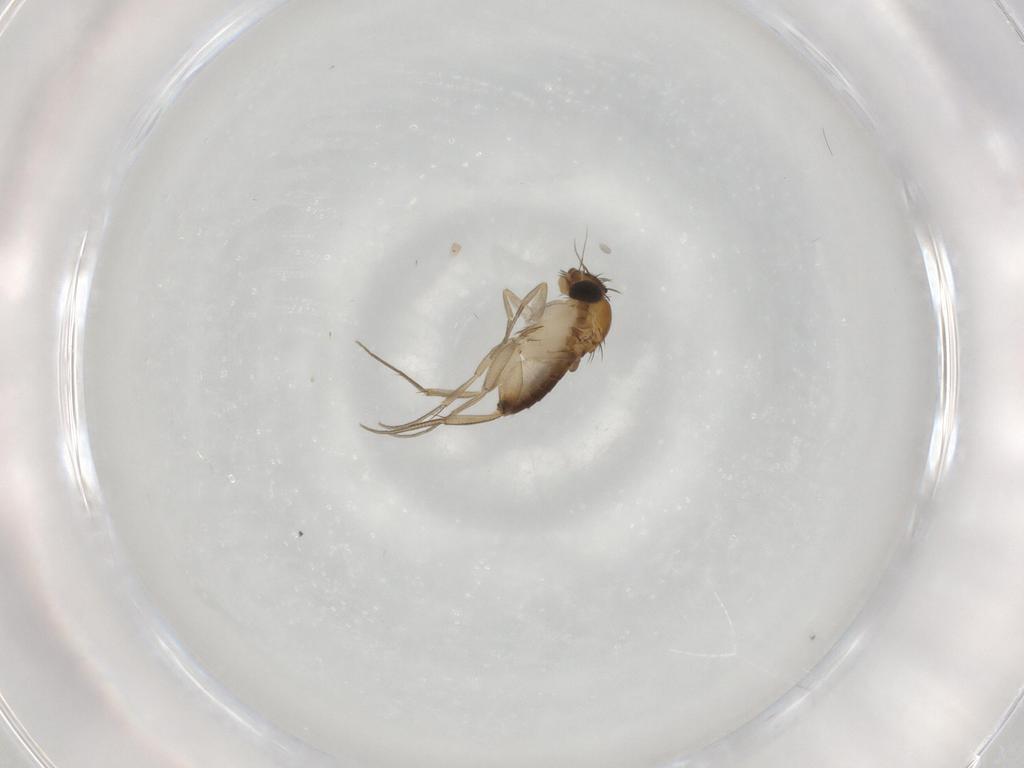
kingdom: Animalia
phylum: Arthropoda
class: Insecta
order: Diptera
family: Phoridae
